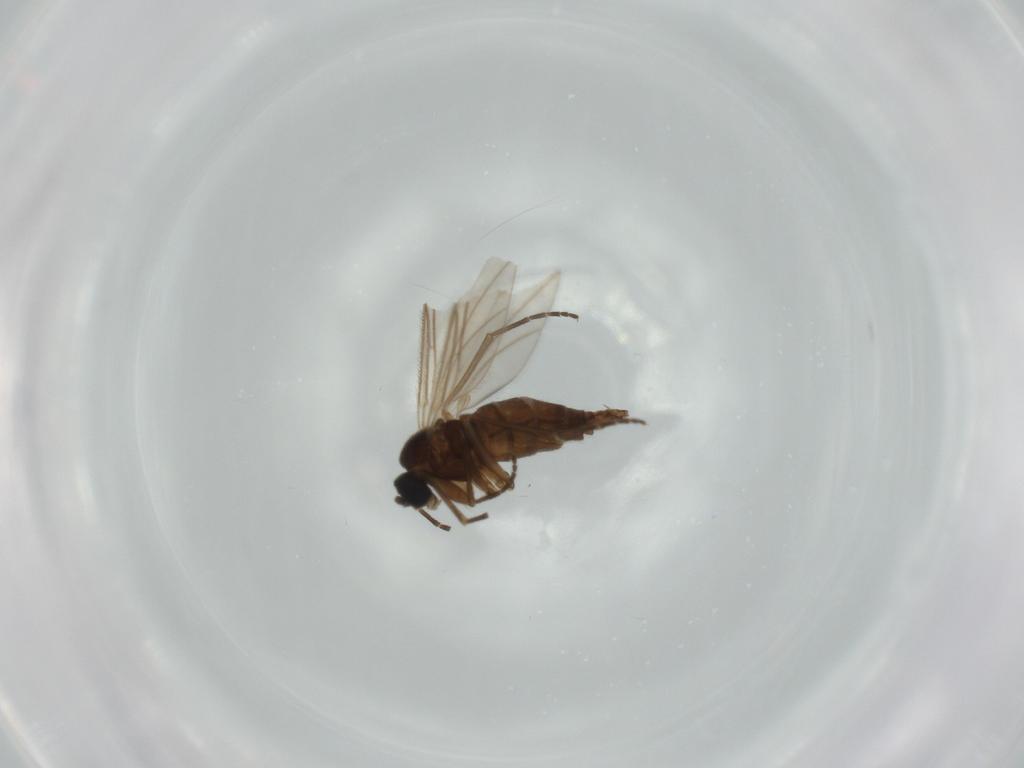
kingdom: Animalia
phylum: Arthropoda
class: Insecta
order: Diptera
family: Sciaridae
